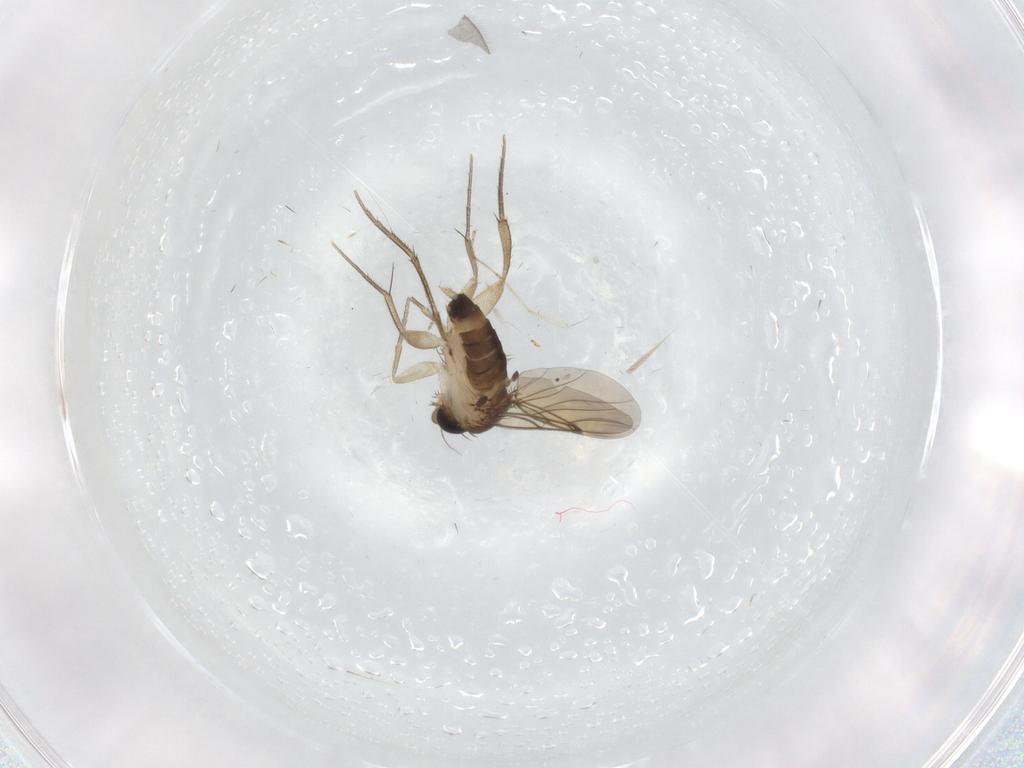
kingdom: Animalia
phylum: Arthropoda
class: Insecta
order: Diptera
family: Cecidomyiidae
